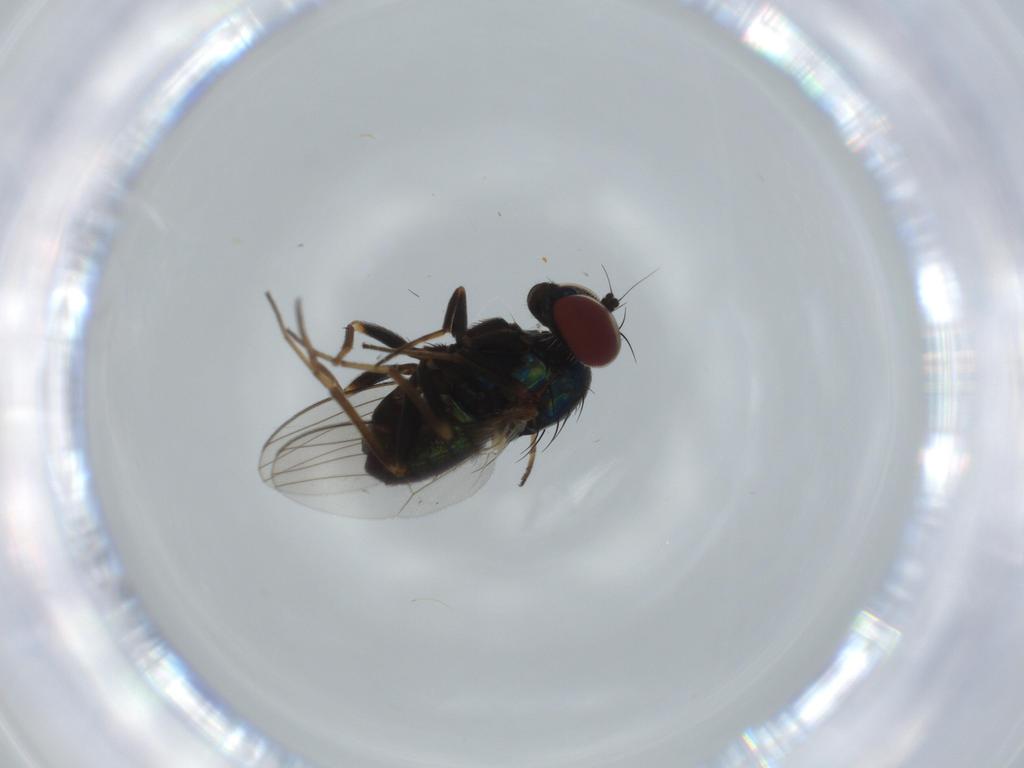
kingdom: Animalia
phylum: Arthropoda
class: Insecta
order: Diptera
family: Dolichopodidae
